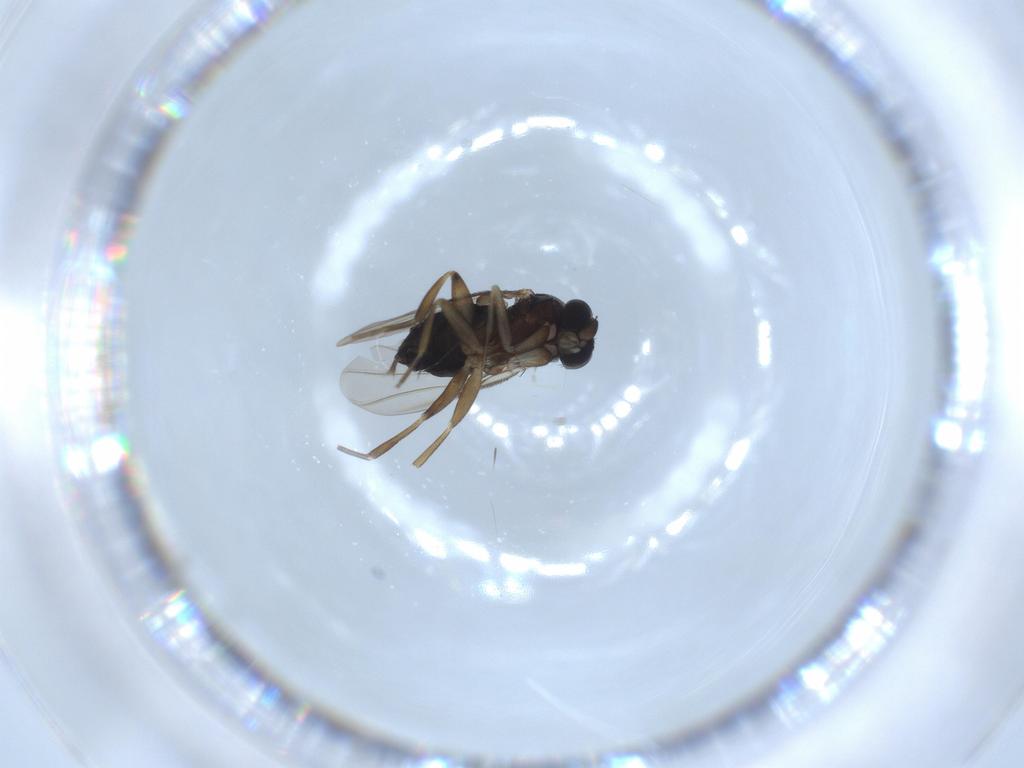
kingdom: Animalia
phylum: Arthropoda
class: Insecta
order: Diptera
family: Phoridae
